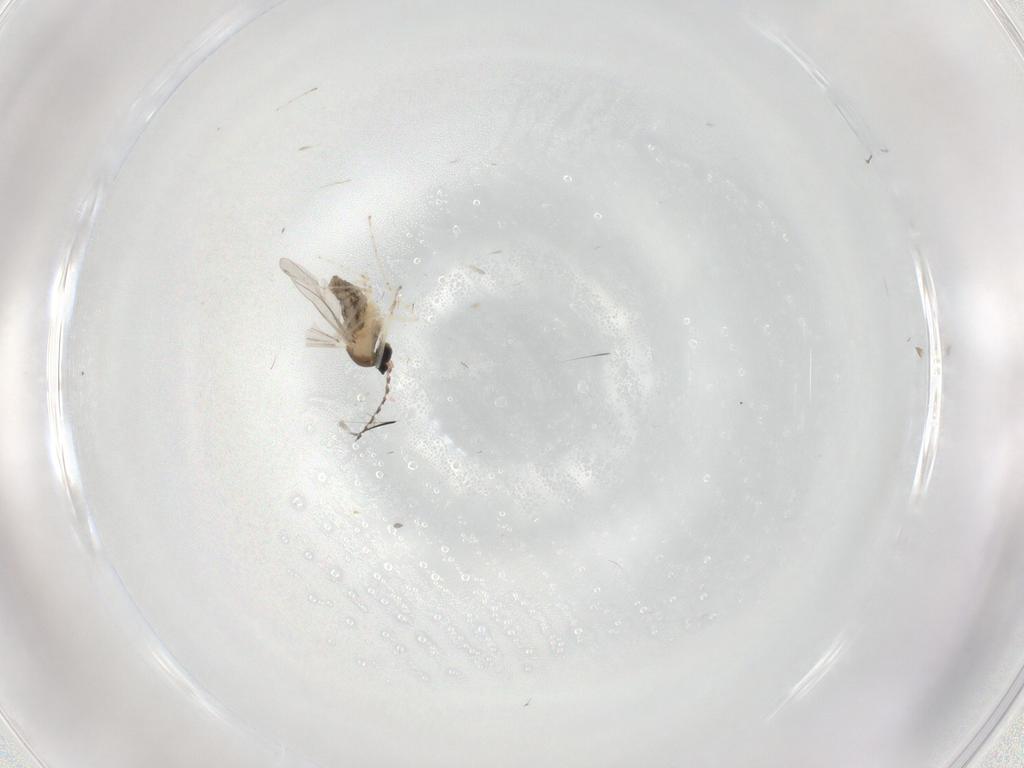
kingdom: Animalia
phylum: Arthropoda
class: Insecta
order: Diptera
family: Cecidomyiidae
